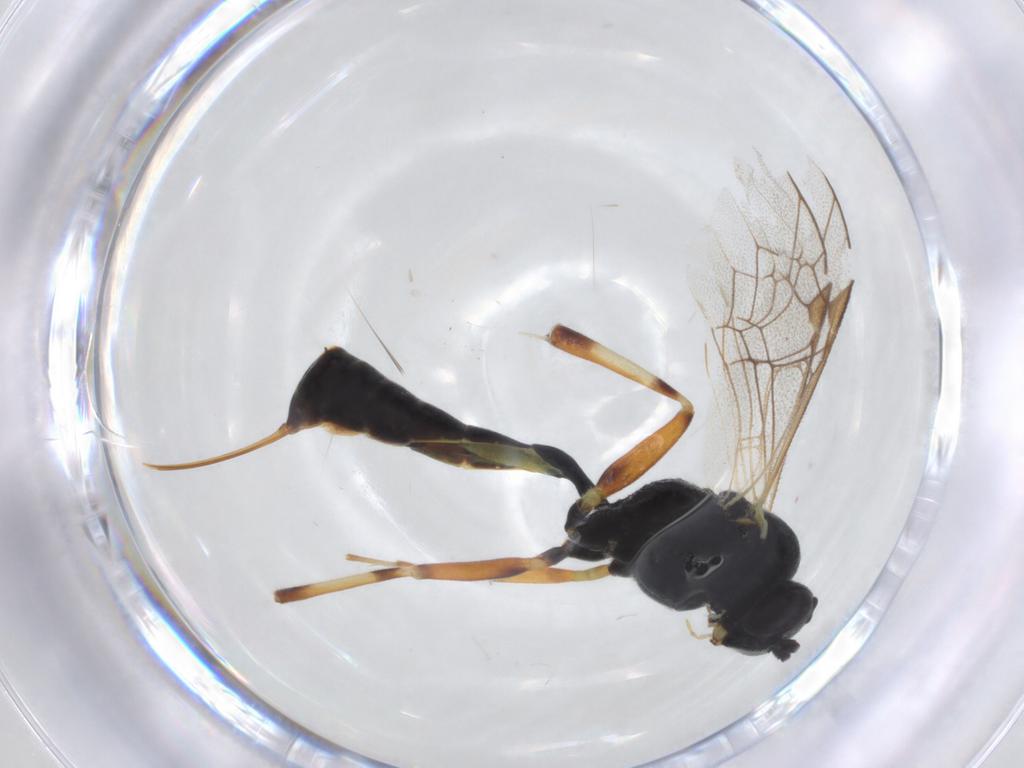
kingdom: Animalia
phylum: Arthropoda
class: Insecta
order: Hymenoptera
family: Ichneumonidae
